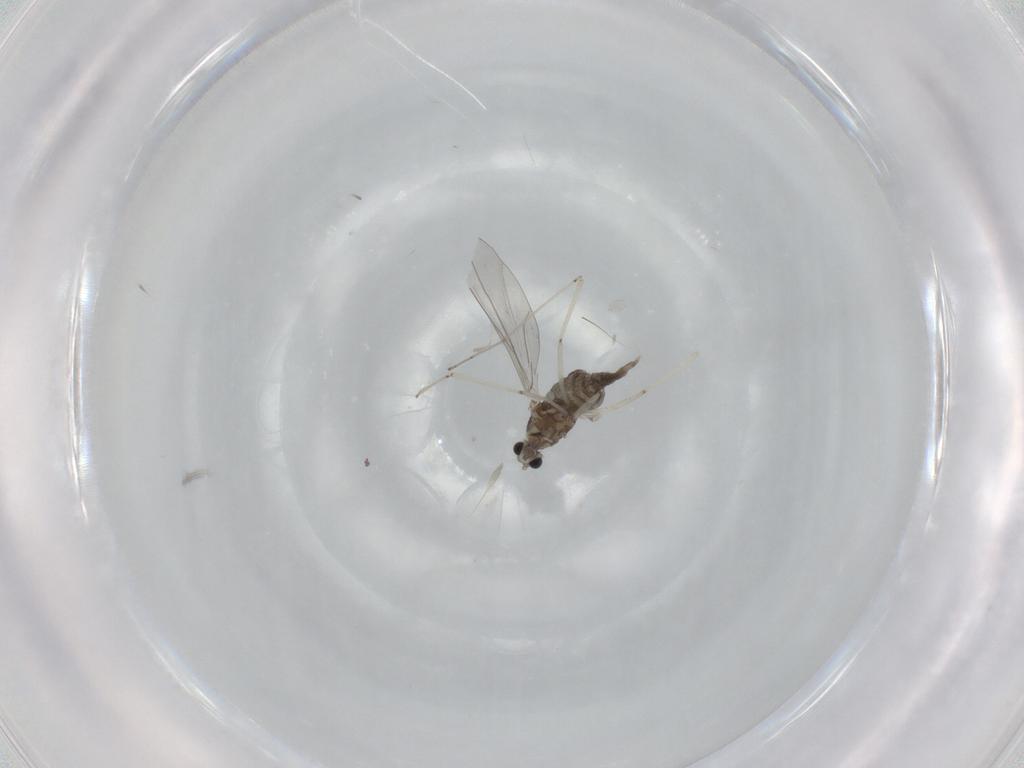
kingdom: Animalia
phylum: Arthropoda
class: Insecta
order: Diptera
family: Cecidomyiidae
